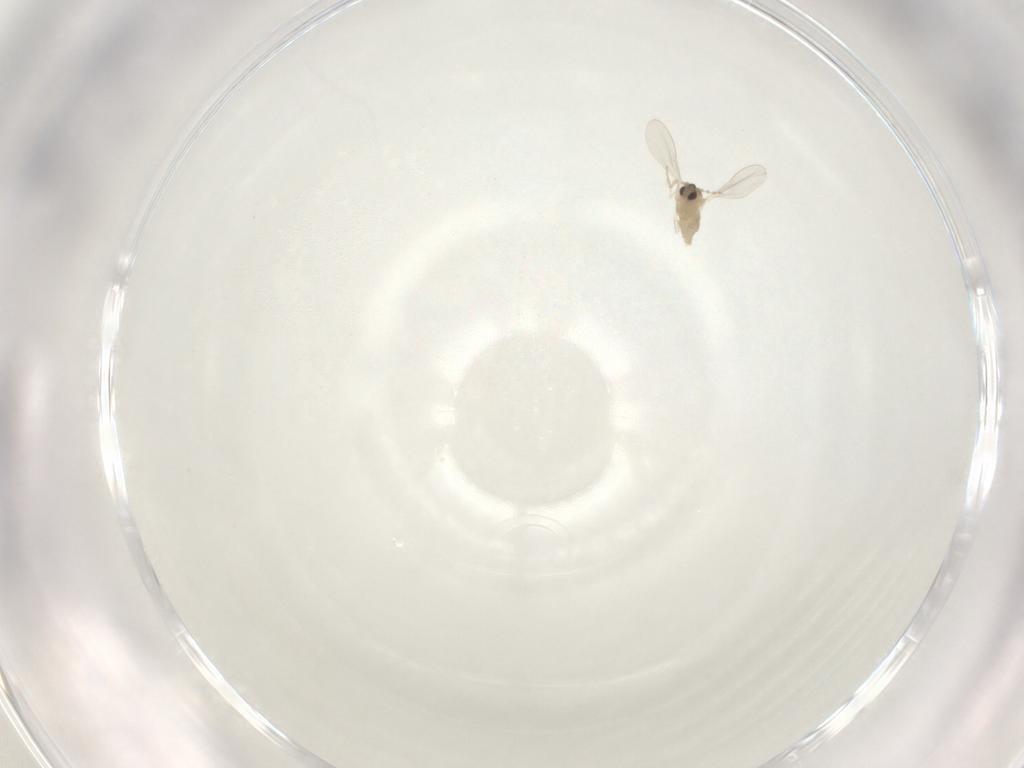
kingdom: Animalia
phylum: Arthropoda
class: Insecta
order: Diptera
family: Cecidomyiidae
